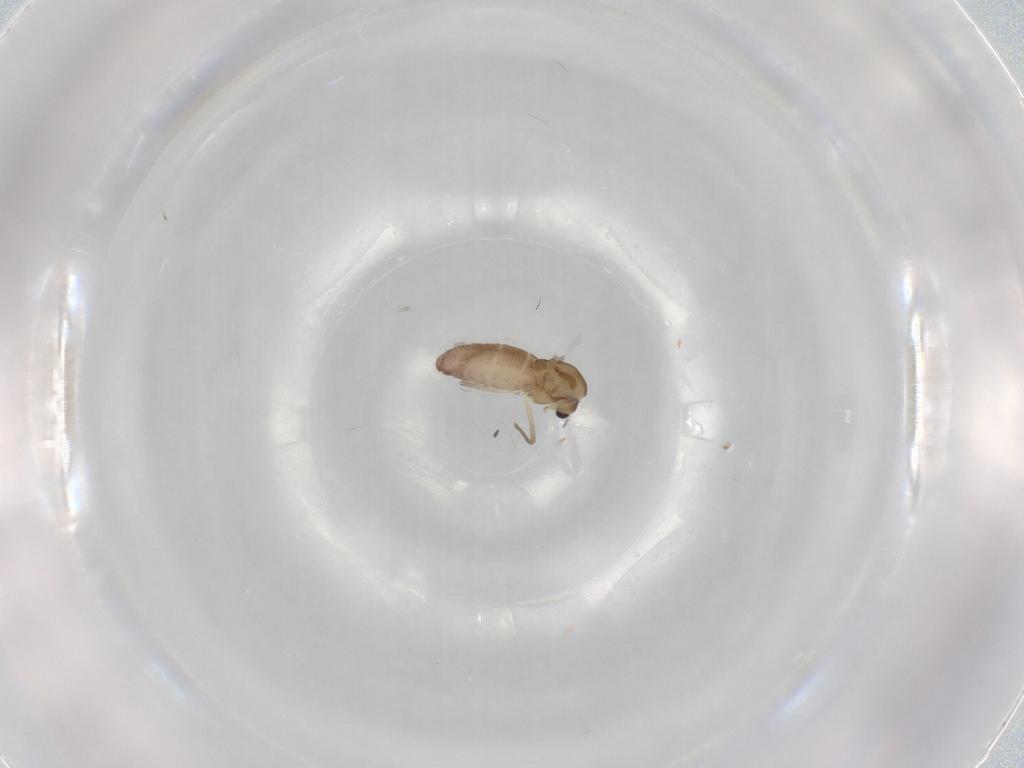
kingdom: Animalia
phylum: Arthropoda
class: Insecta
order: Diptera
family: Chironomidae
